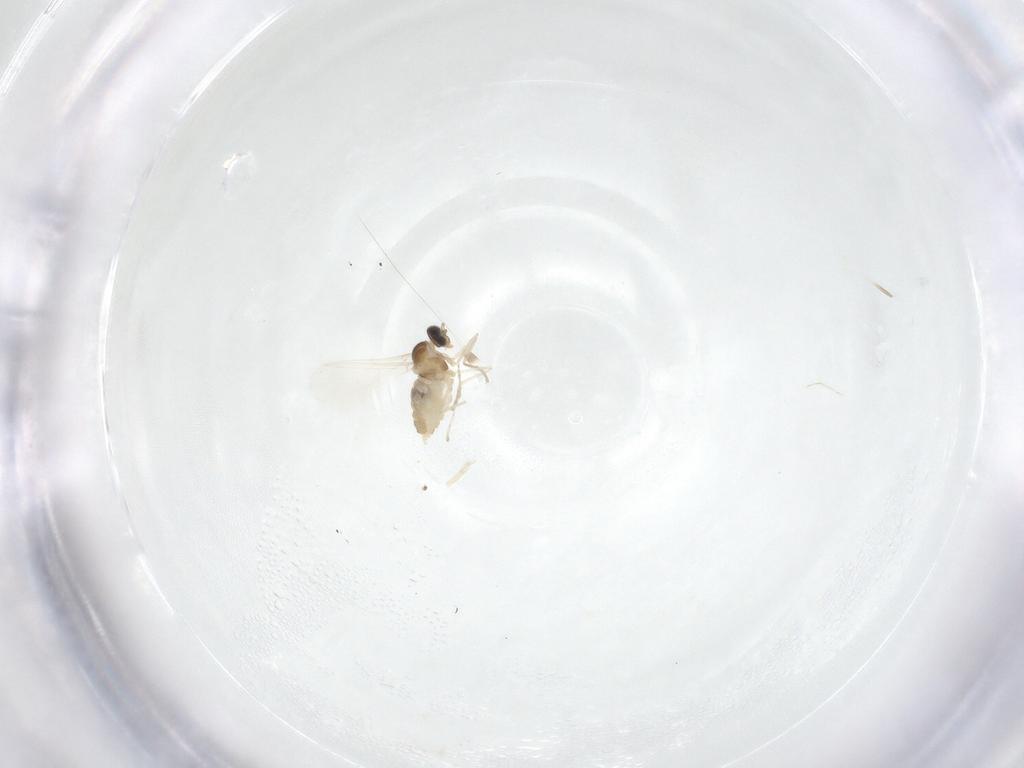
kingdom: Animalia
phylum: Arthropoda
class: Insecta
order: Diptera
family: Cecidomyiidae
